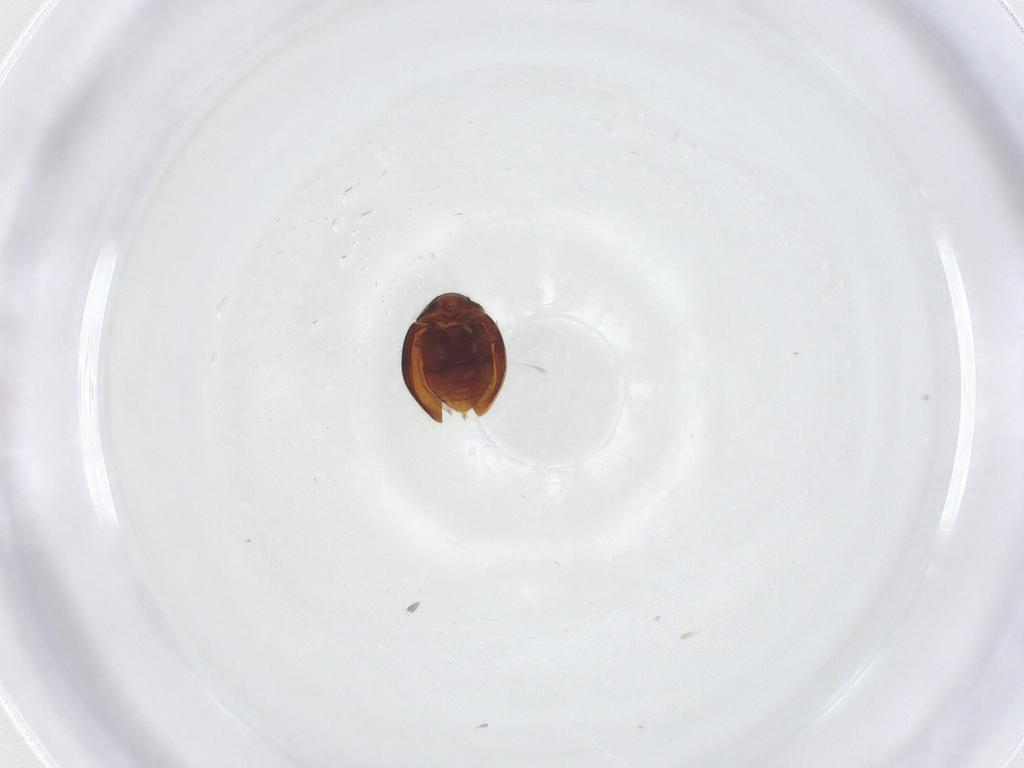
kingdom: Animalia
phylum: Arthropoda
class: Insecta
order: Coleoptera
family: Coccinellidae
